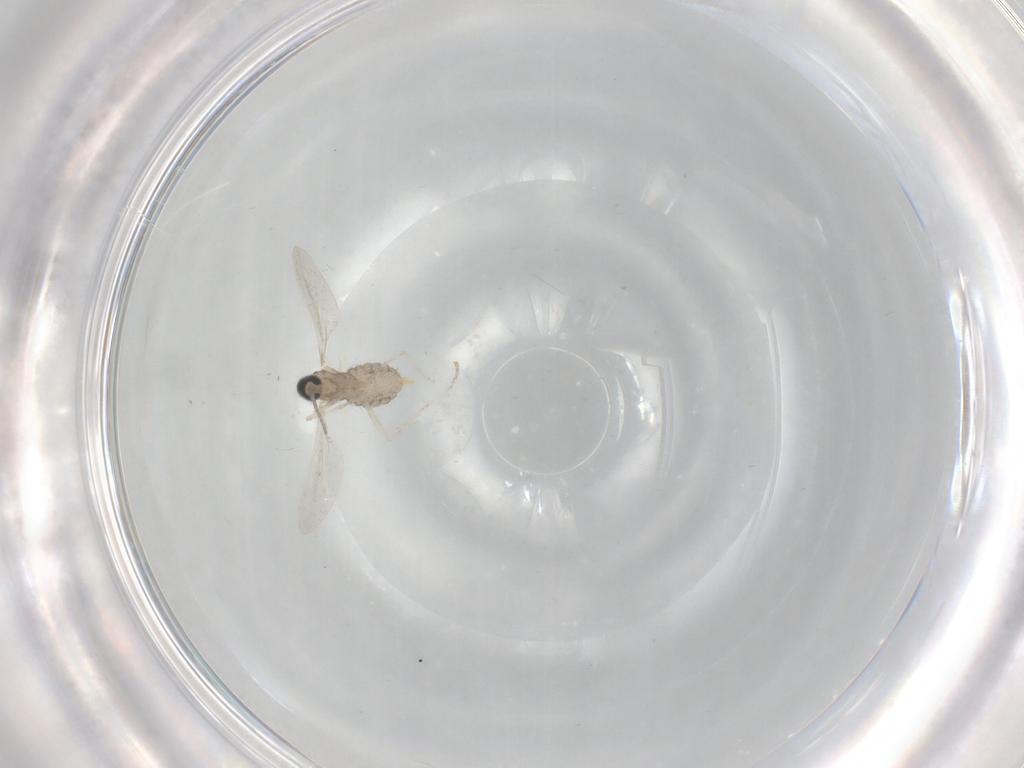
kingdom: Animalia
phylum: Arthropoda
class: Insecta
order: Diptera
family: Cecidomyiidae
